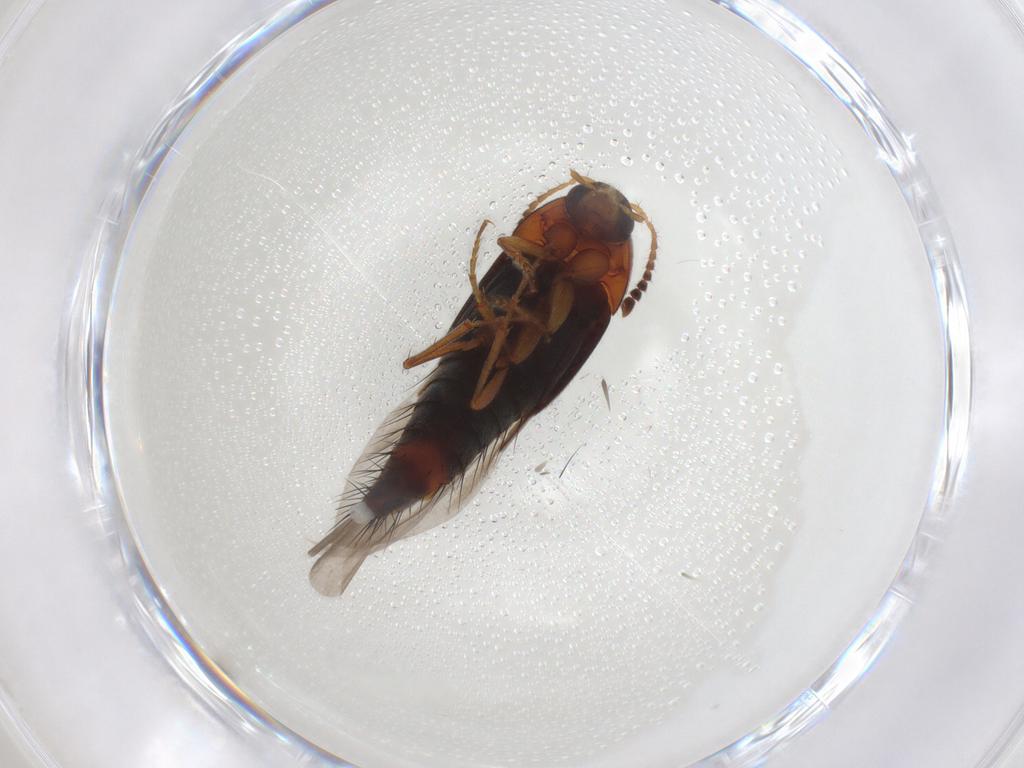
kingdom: Animalia
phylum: Arthropoda
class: Insecta
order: Coleoptera
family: Staphylinidae
